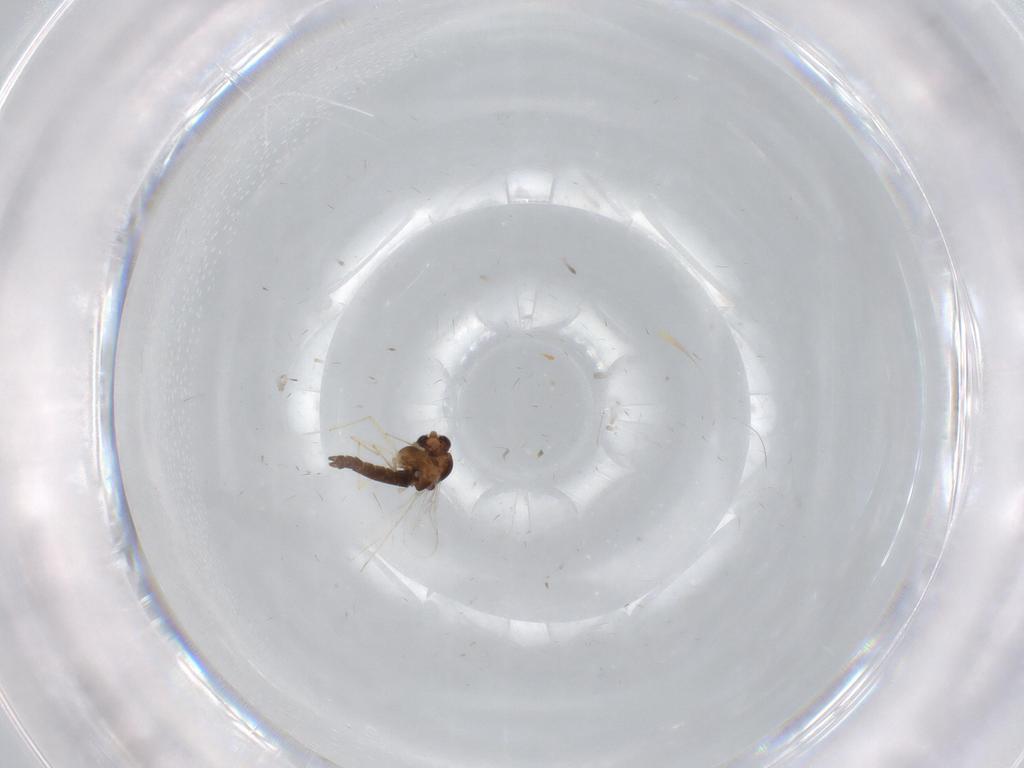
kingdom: Animalia
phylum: Arthropoda
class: Insecta
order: Diptera
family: Chironomidae
